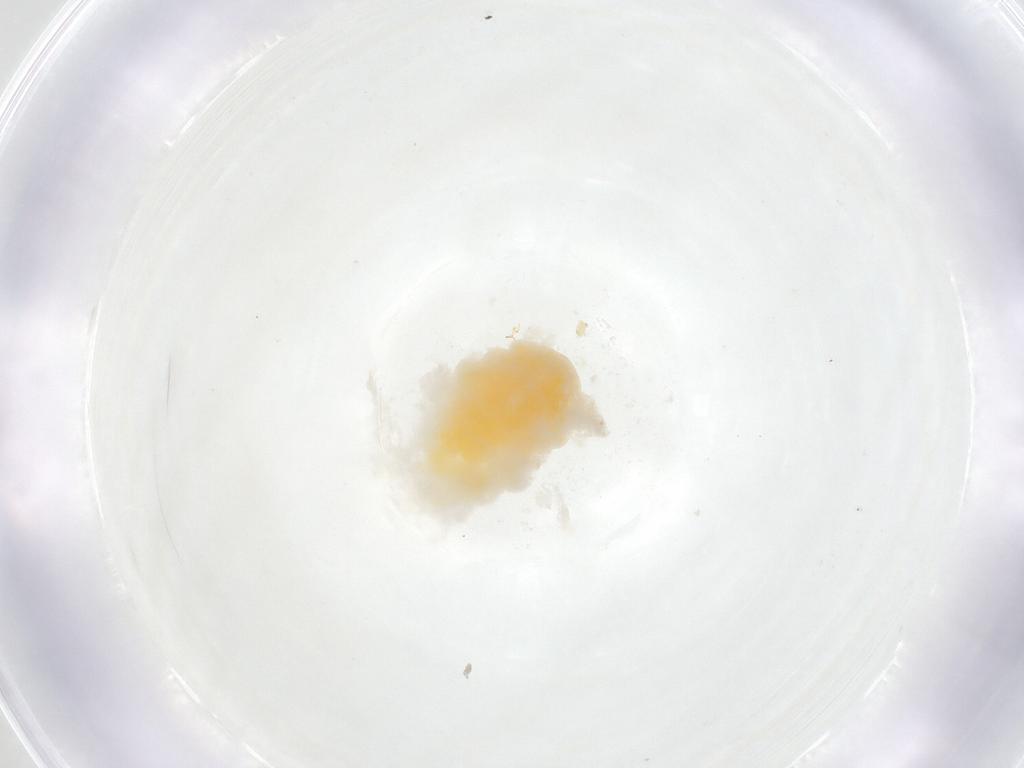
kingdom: Animalia
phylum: Arthropoda
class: Insecta
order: Diptera
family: Cecidomyiidae
